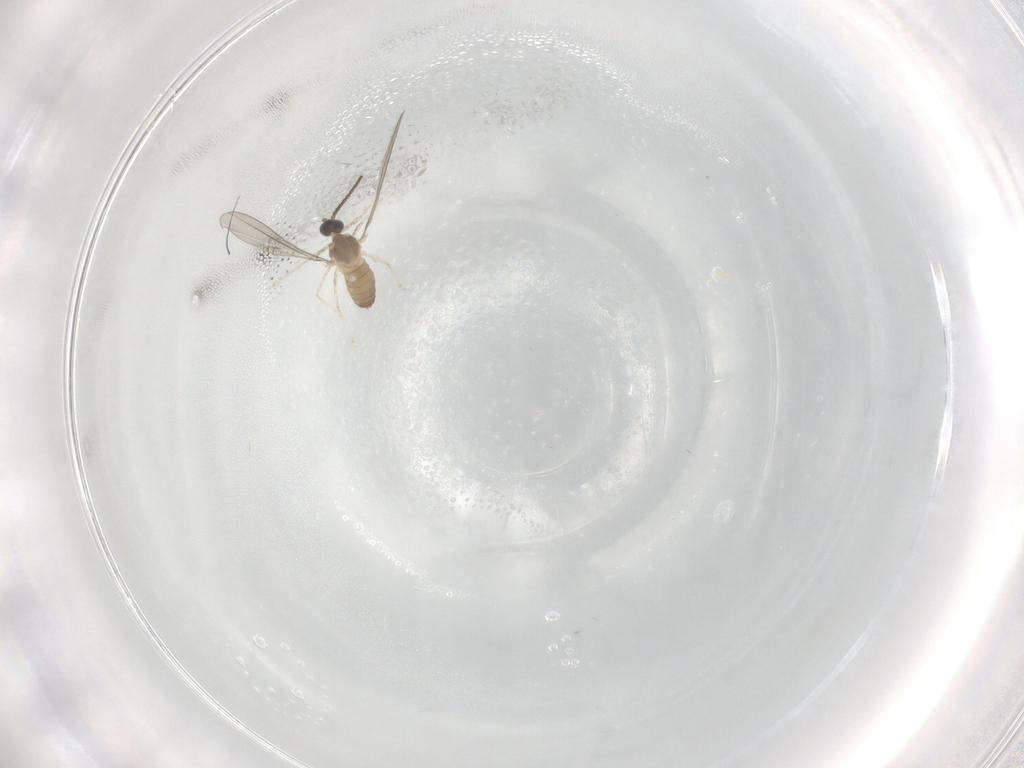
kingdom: Animalia
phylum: Arthropoda
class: Insecta
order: Diptera
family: Cecidomyiidae
